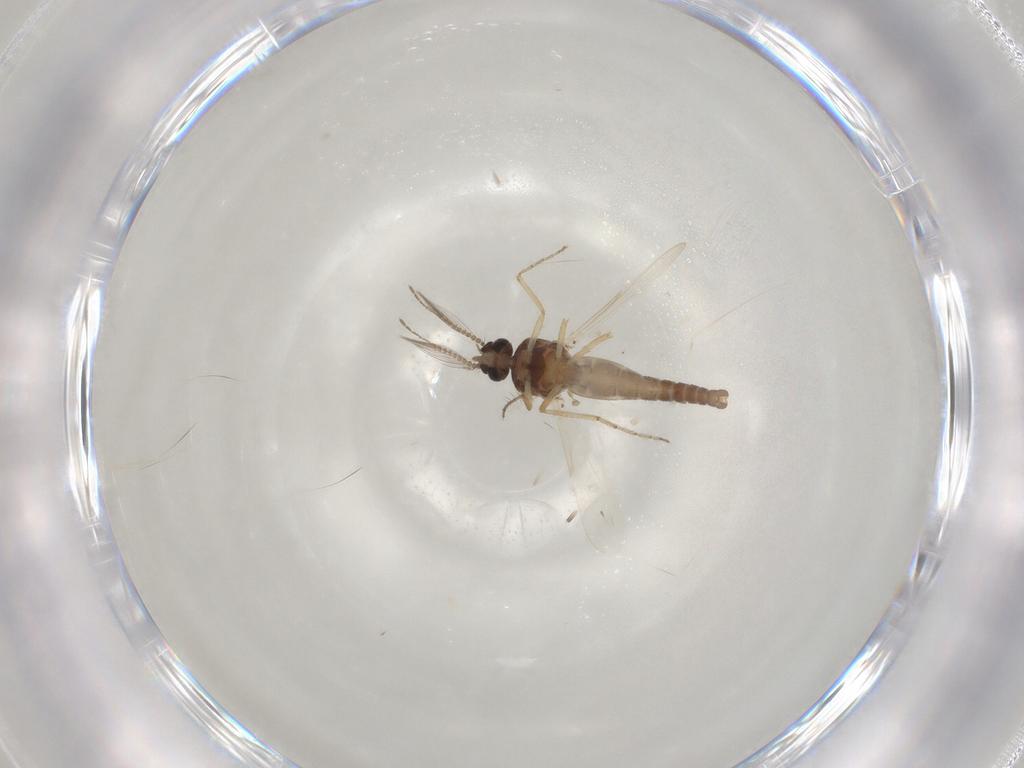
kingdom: Animalia
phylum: Arthropoda
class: Insecta
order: Diptera
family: Ceratopogonidae
